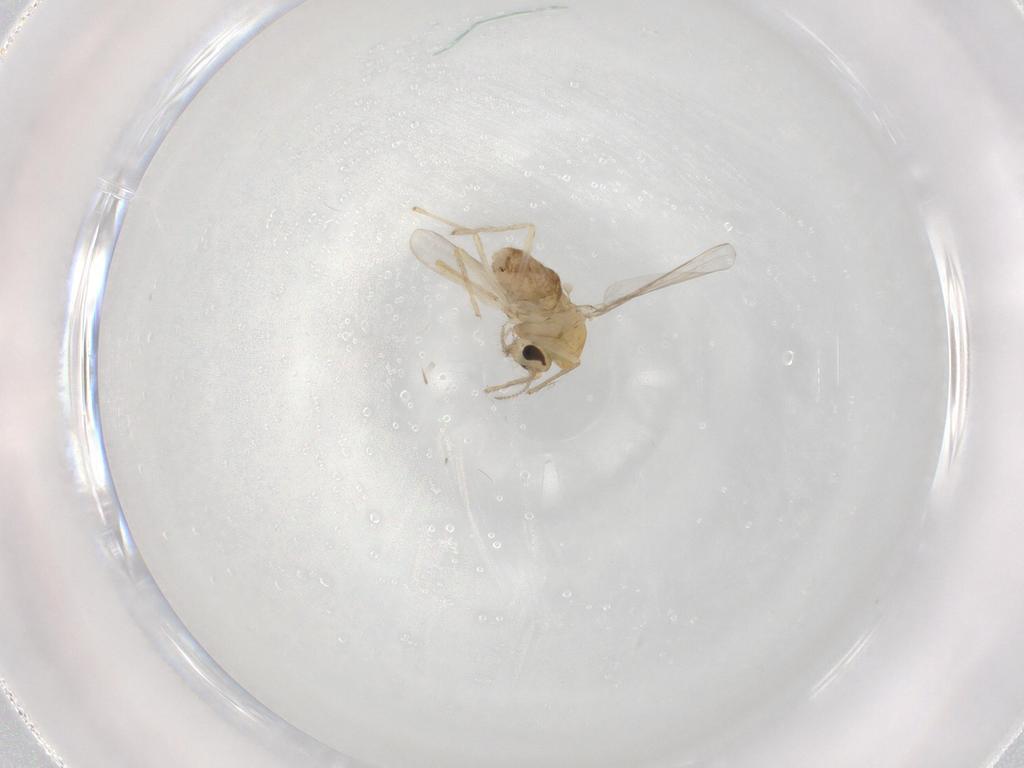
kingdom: Animalia
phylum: Arthropoda
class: Insecta
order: Diptera
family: Chironomidae
